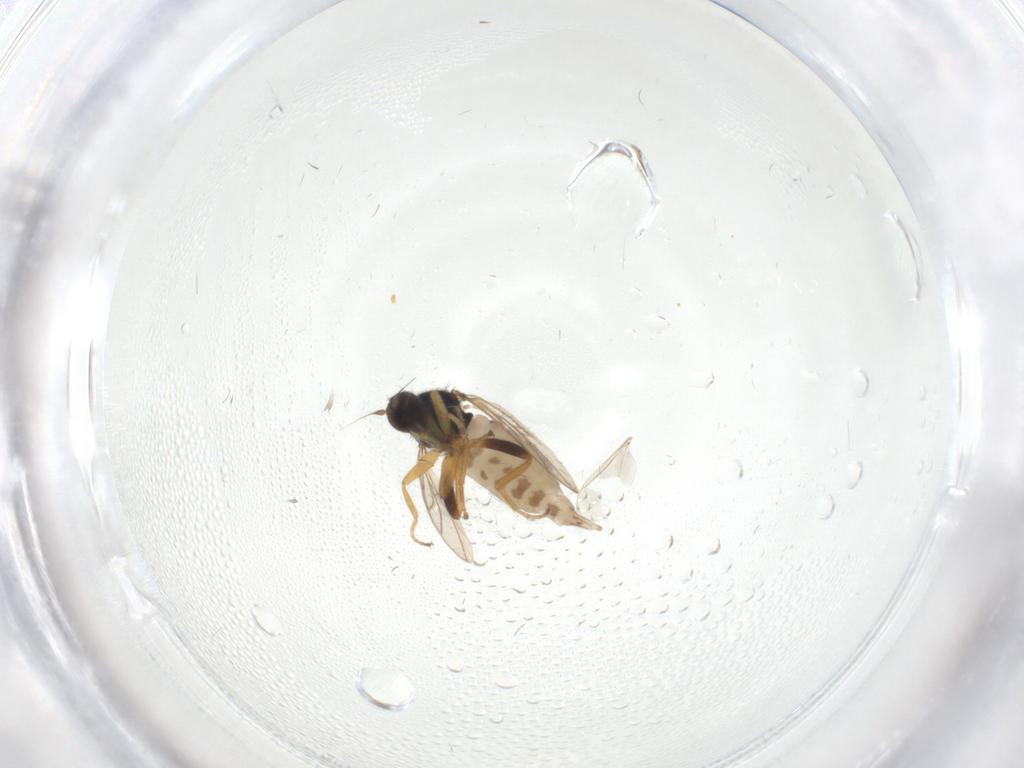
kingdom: Animalia
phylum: Arthropoda
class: Insecta
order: Diptera
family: Hybotidae
